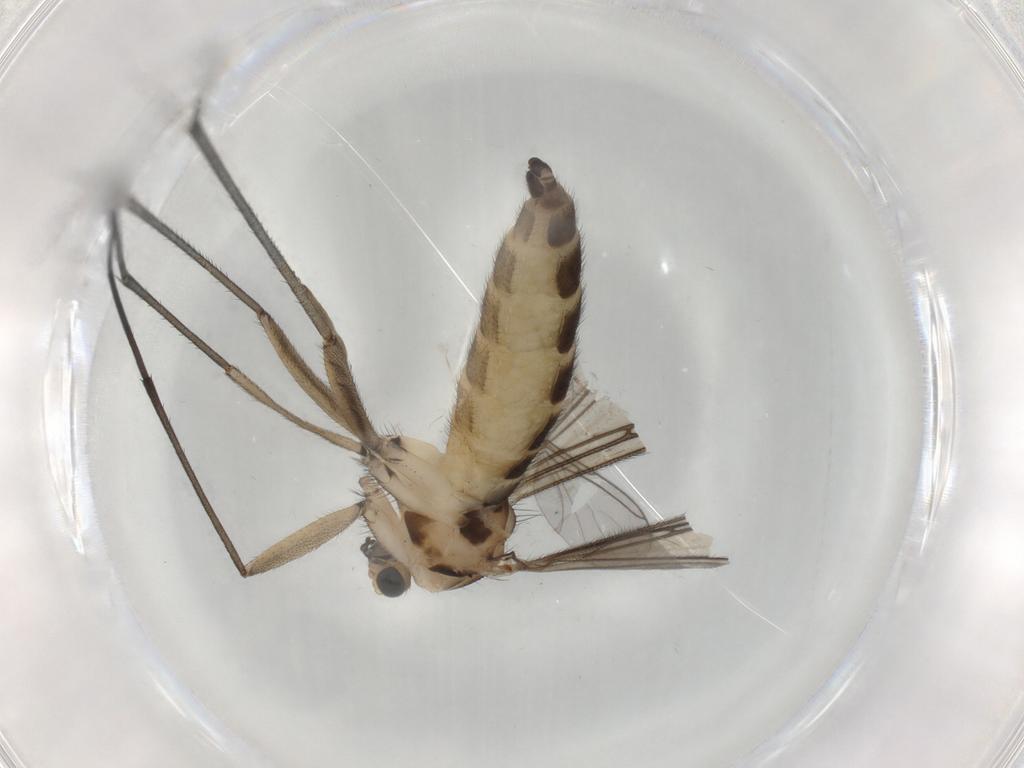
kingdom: Animalia
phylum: Arthropoda
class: Insecta
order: Diptera
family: Sciaridae
